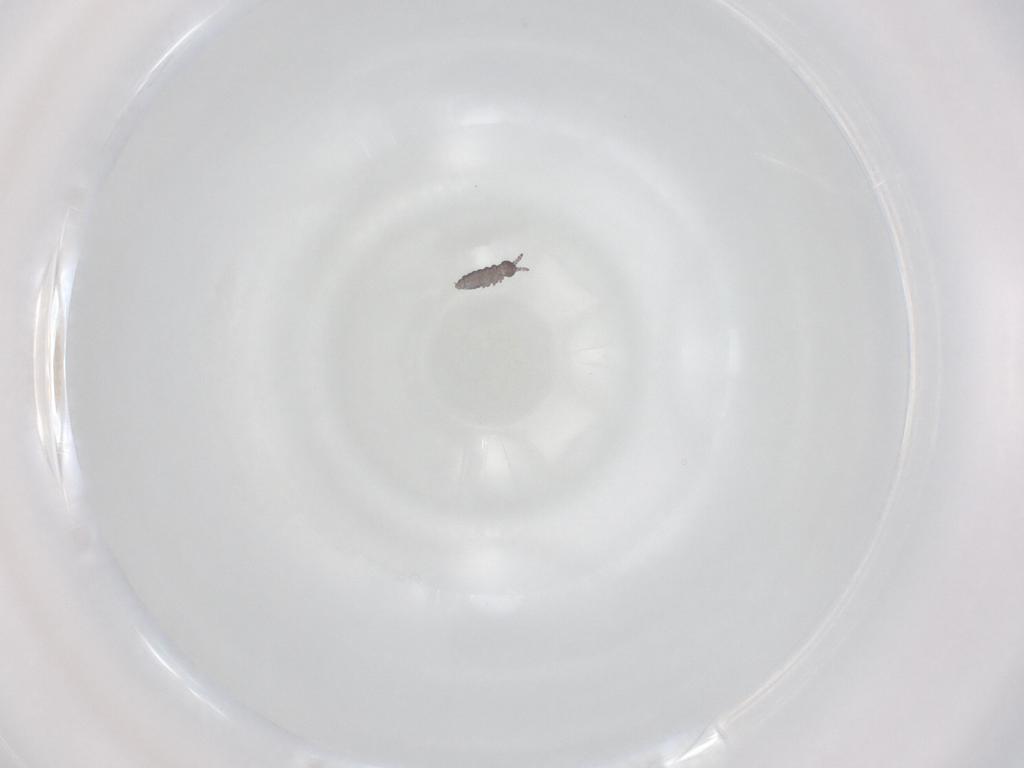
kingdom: Animalia
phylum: Arthropoda
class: Collembola
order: Poduromorpha
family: Hypogastruridae
